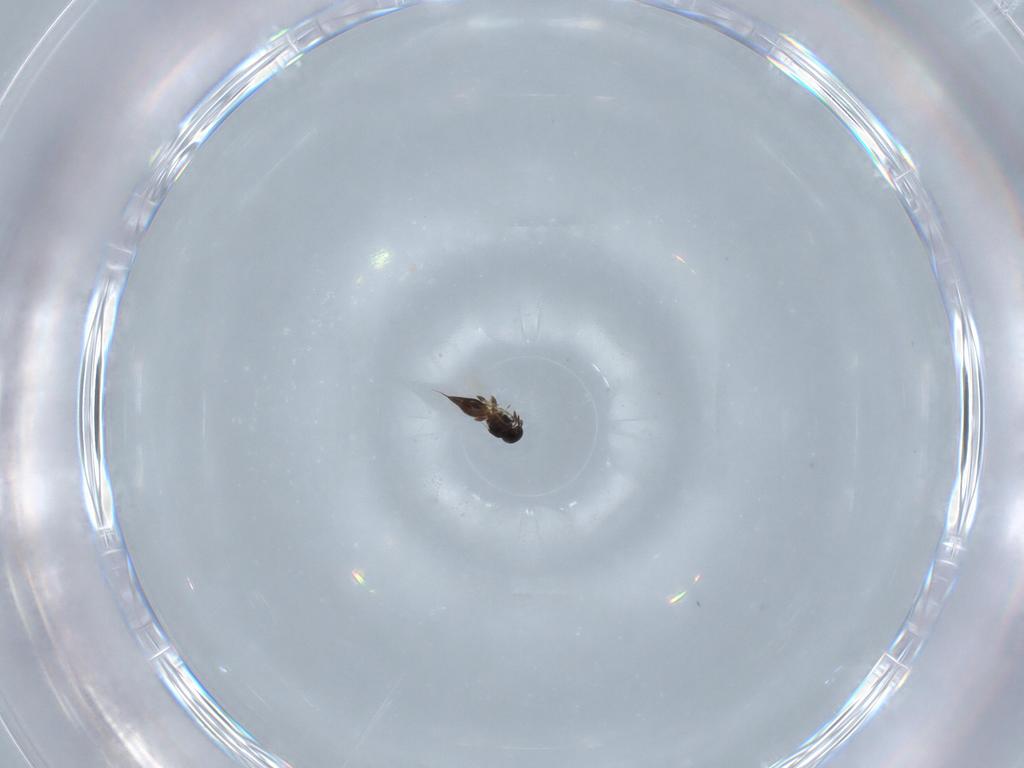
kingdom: Animalia
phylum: Arthropoda
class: Insecta
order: Hymenoptera
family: Platygastridae
